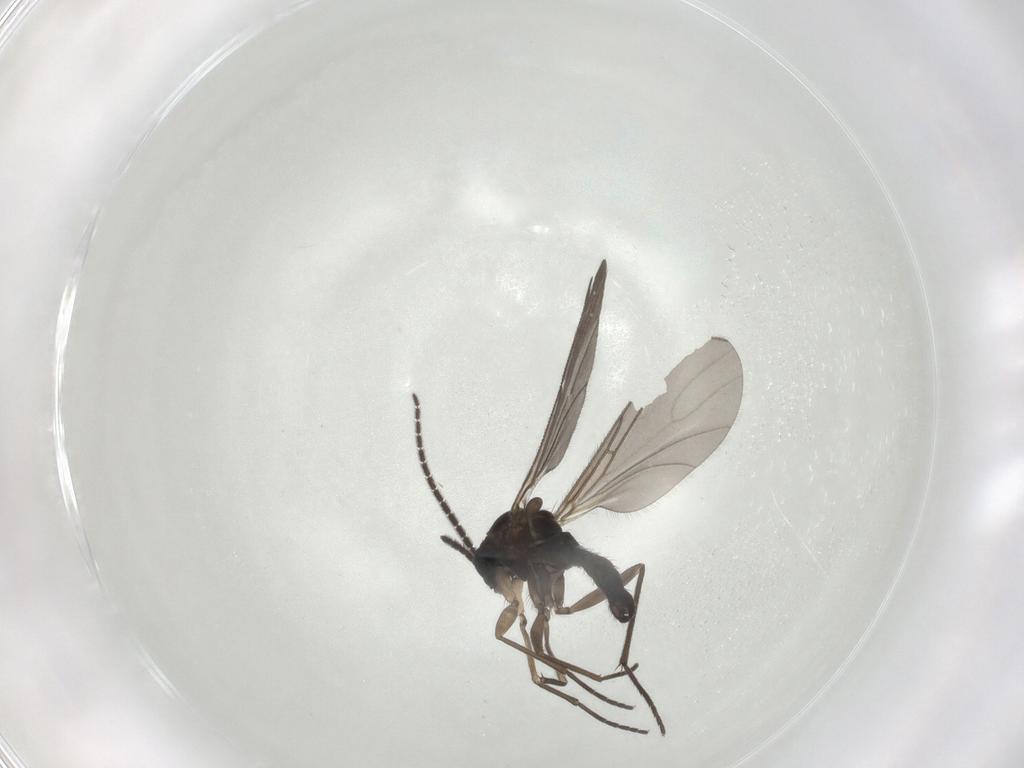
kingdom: Animalia
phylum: Arthropoda
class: Insecta
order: Diptera
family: Sciaridae
